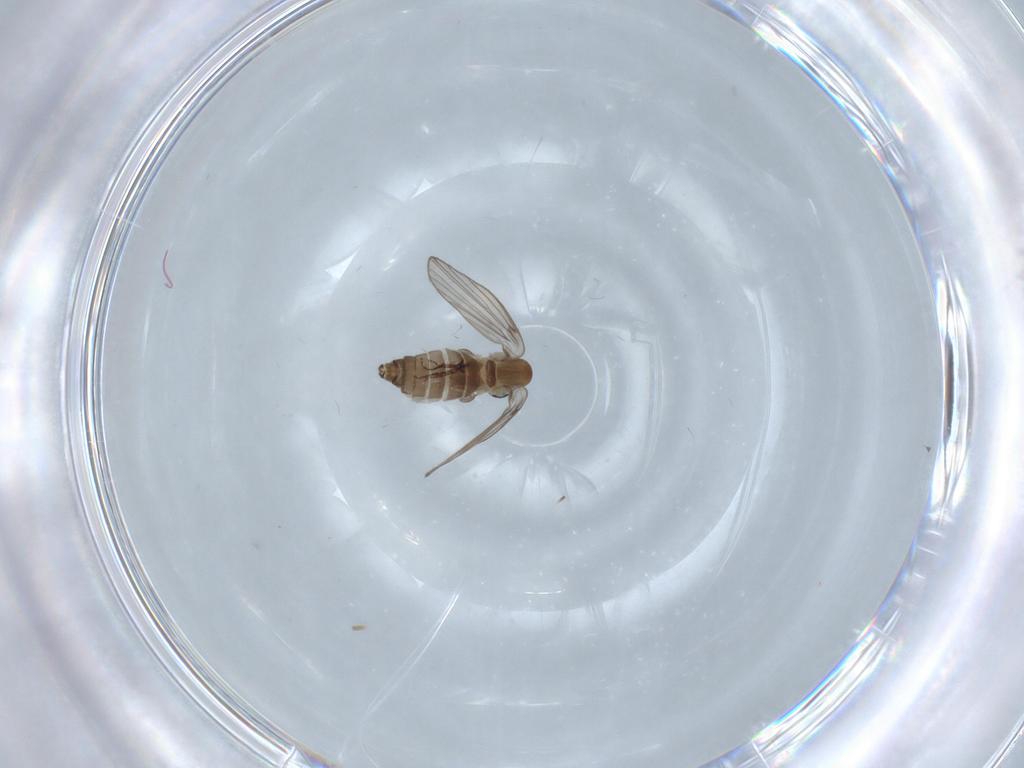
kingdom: Animalia
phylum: Arthropoda
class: Insecta
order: Diptera
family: Phoridae
